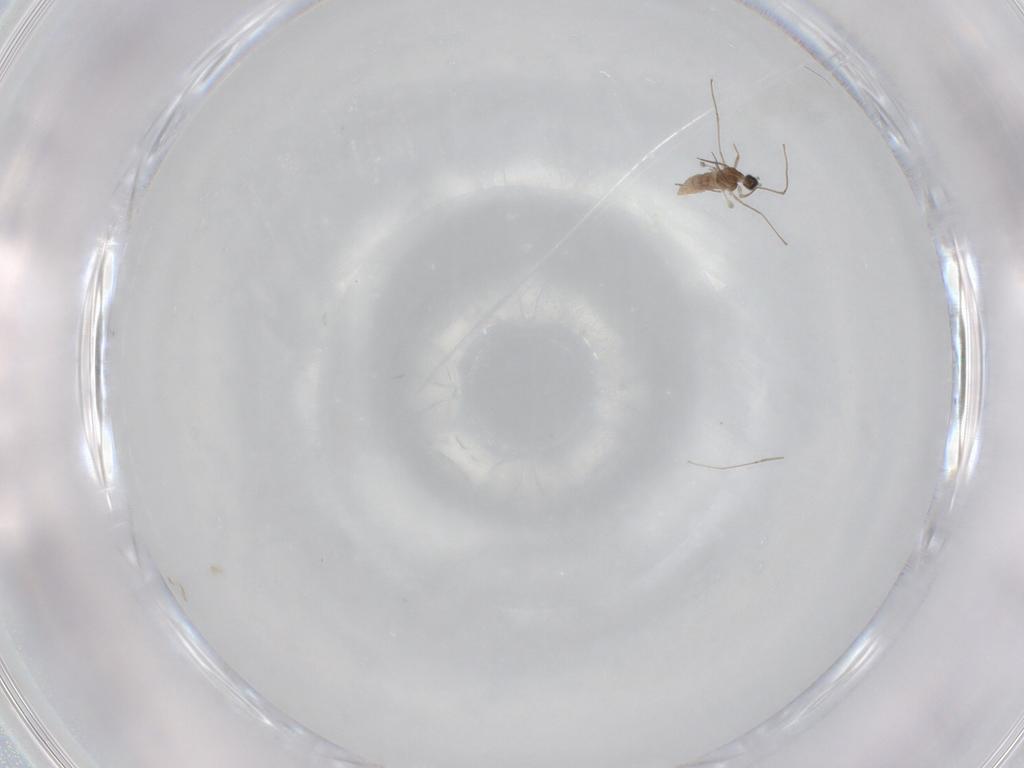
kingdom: Animalia
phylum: Arthropoda
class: Insecta
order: Diptera
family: Cecidomyiidae
